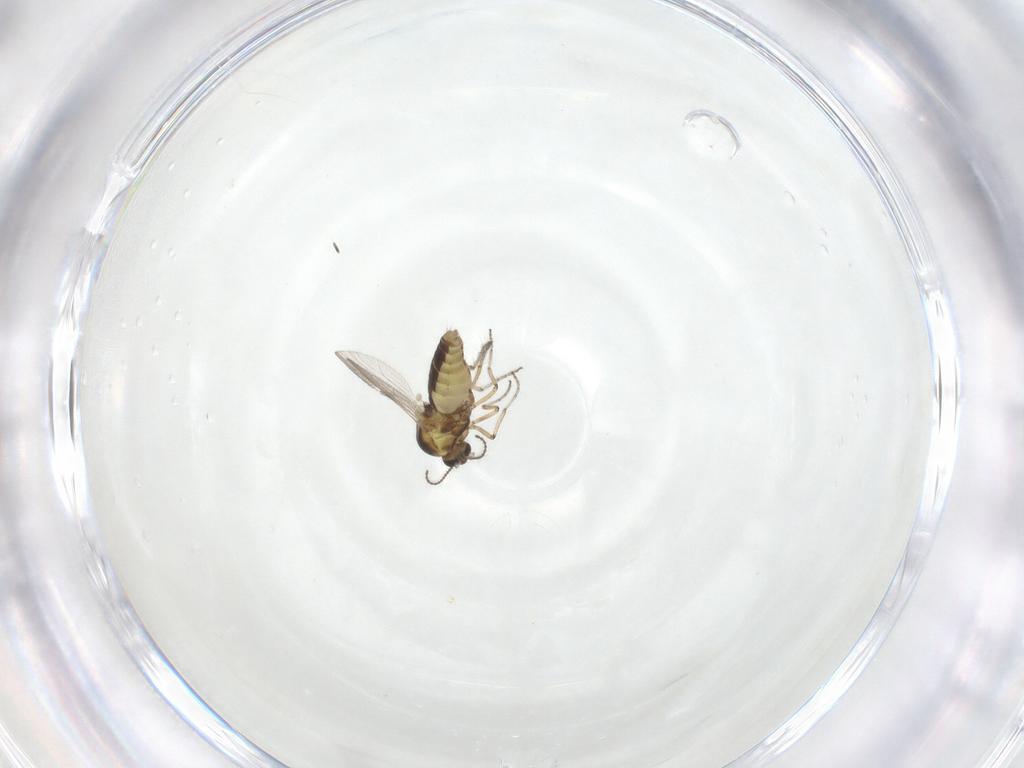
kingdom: Animalia
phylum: Arthropoda
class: Insecta
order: Diptera
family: Ceratopogonidae
